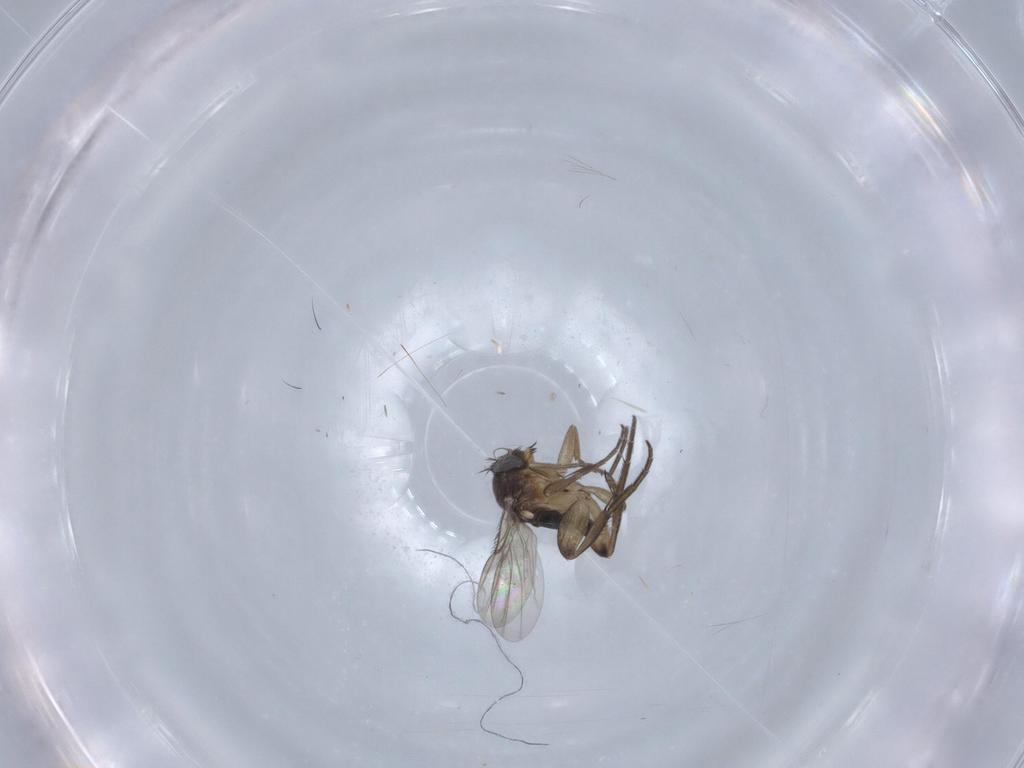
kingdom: Animalia
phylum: Arthropoda
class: Insecta
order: Diptera
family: Phoridae
